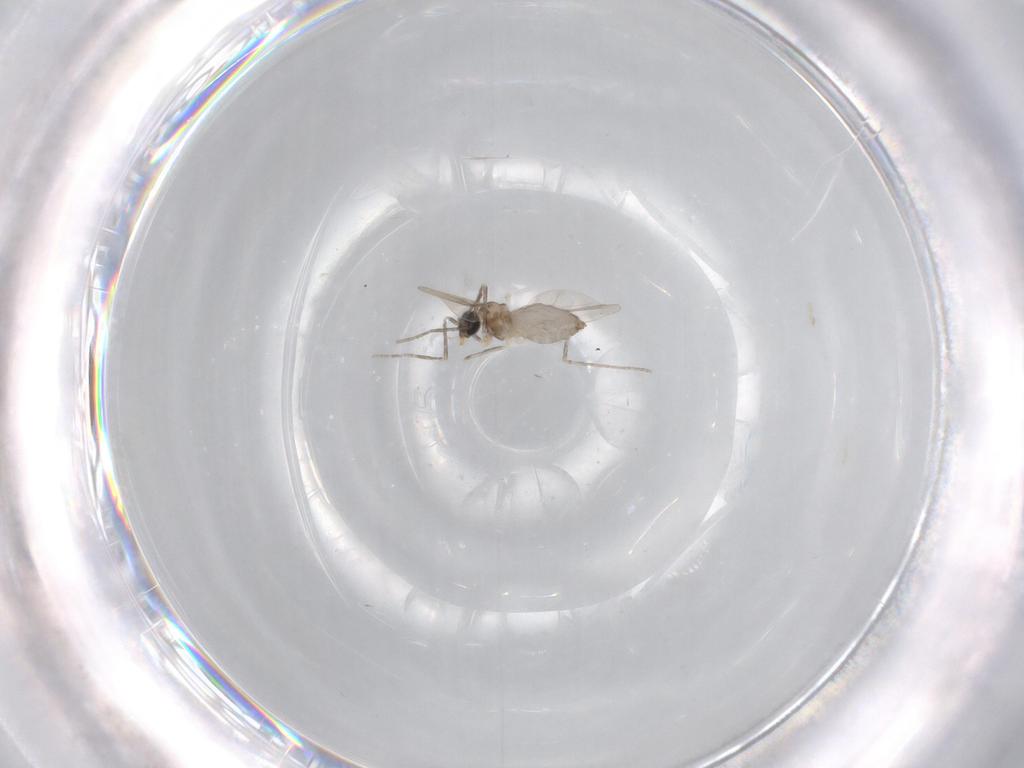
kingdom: Animalia
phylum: Arthropoda
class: Insecta
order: Diptera
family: Cecidomyiidae
